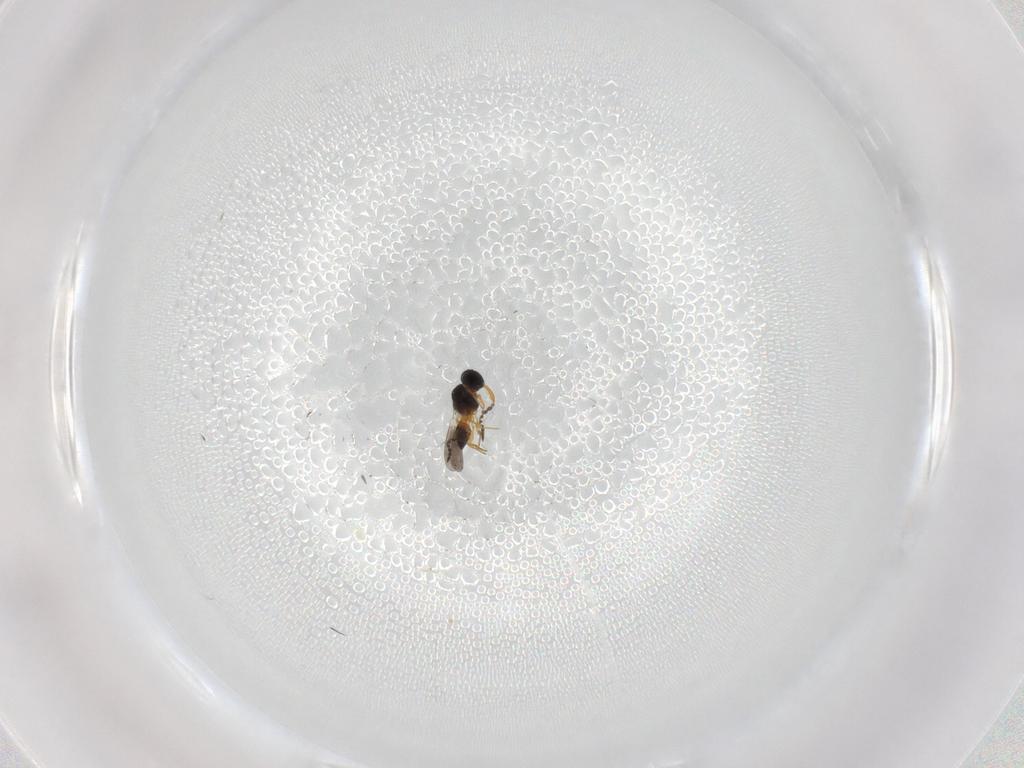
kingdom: Animalia
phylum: Arthropoda
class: Insecta
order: Hymenoptera
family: Platygastridae
